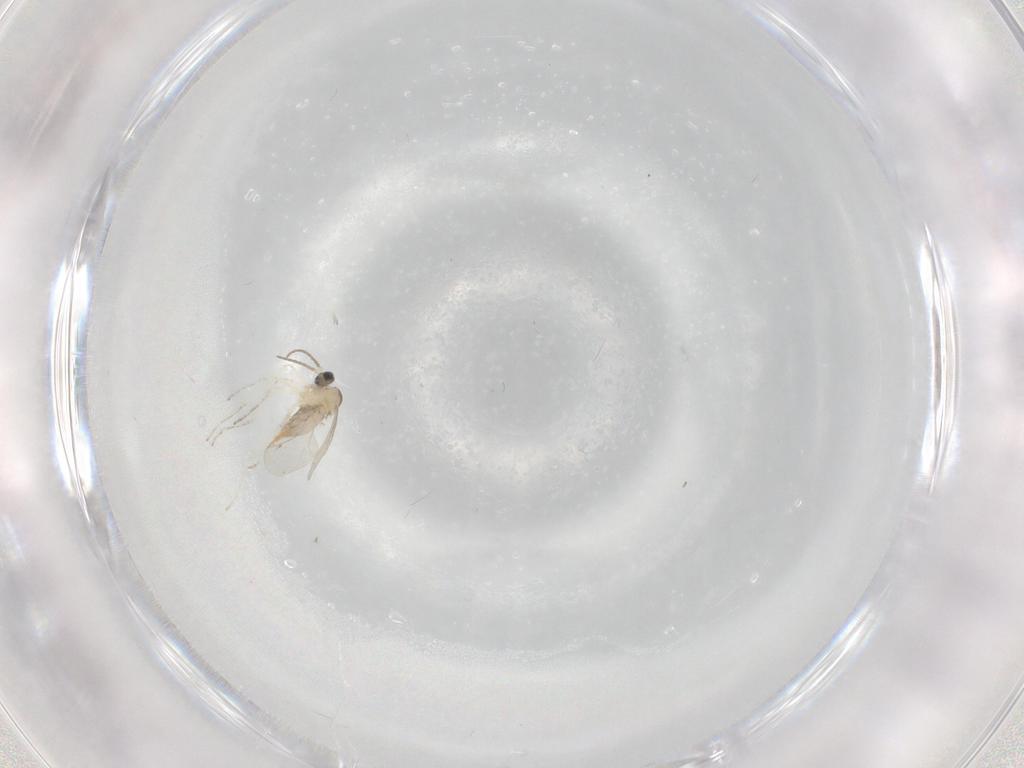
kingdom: Animalia
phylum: Arthropoda
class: Insecta
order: Diptera
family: Cecidomyiidae
